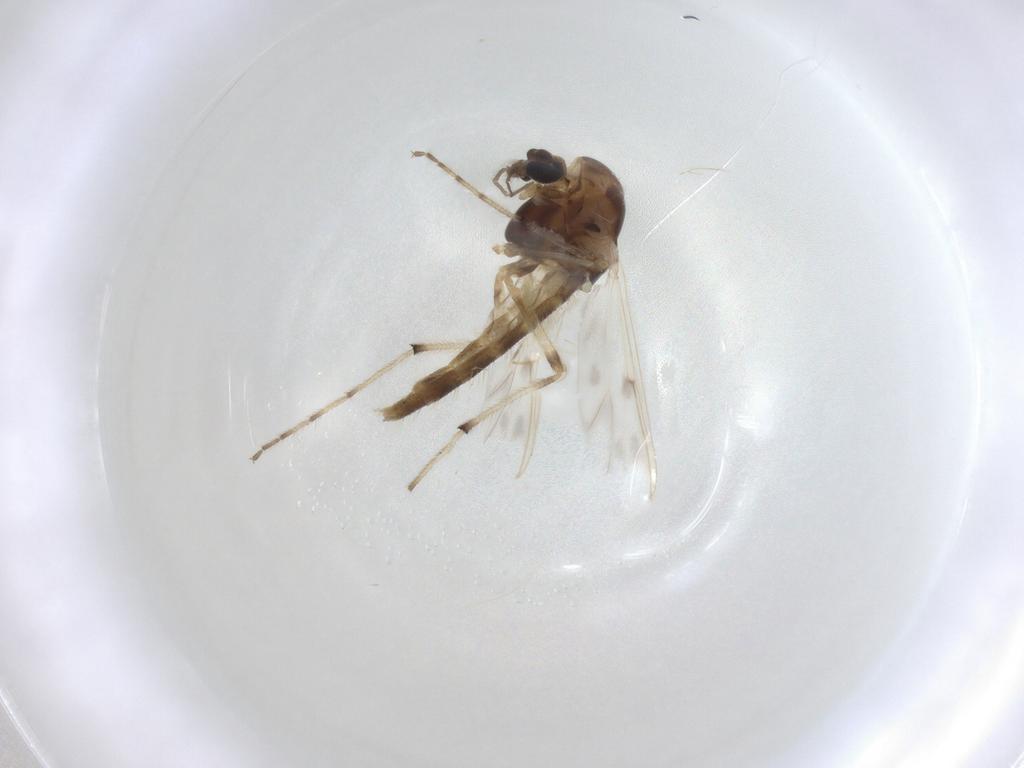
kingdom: Animalia
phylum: Arthropoda
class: Insecta
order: Diptera
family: Chironomidae
